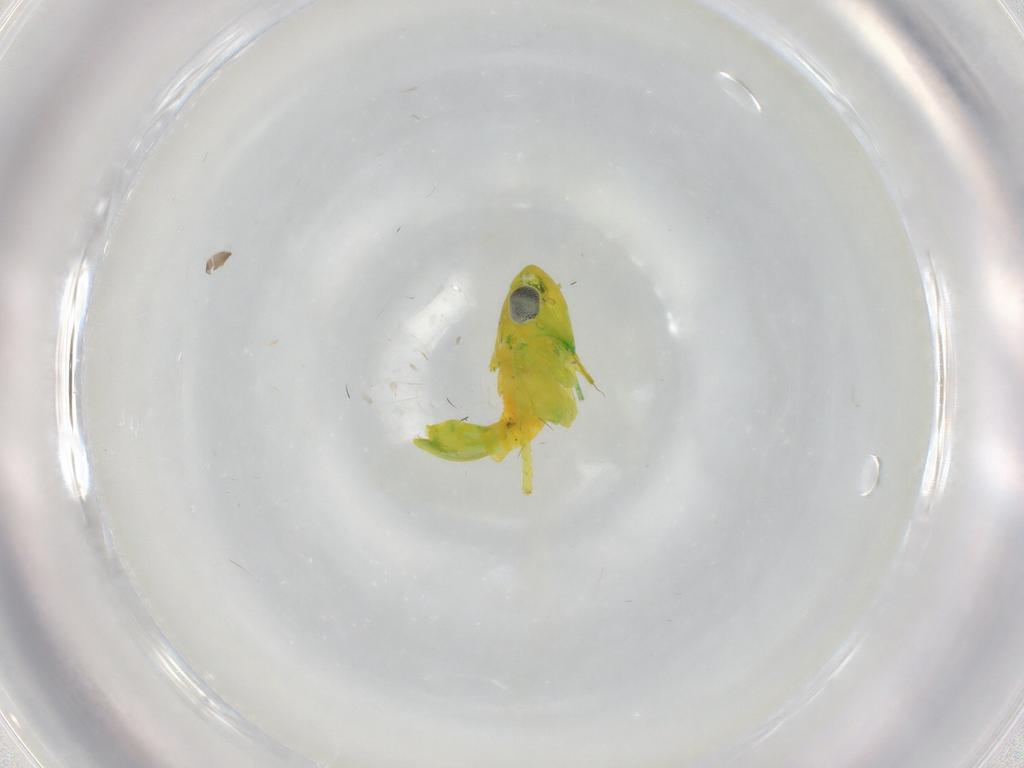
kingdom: Animalia
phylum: Arthropoda
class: Insecta
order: Hemiptera
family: Cicadellidae
